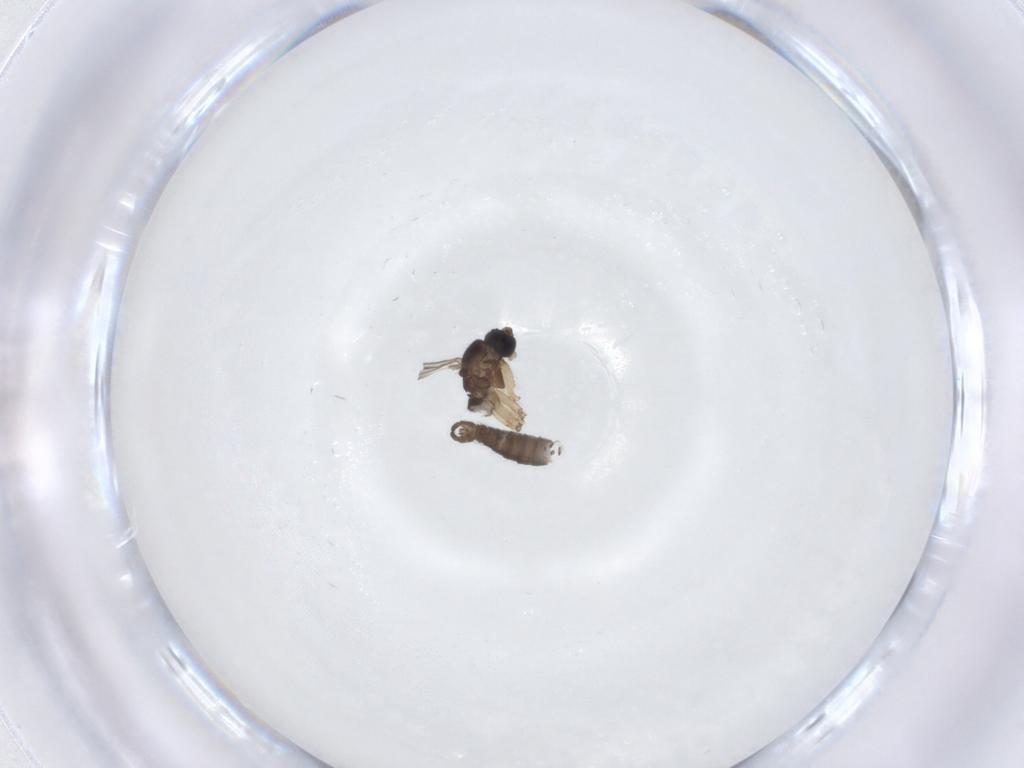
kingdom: Animalia
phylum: Arthropoda
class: Insecta
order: Diptera
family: Sciaridae
